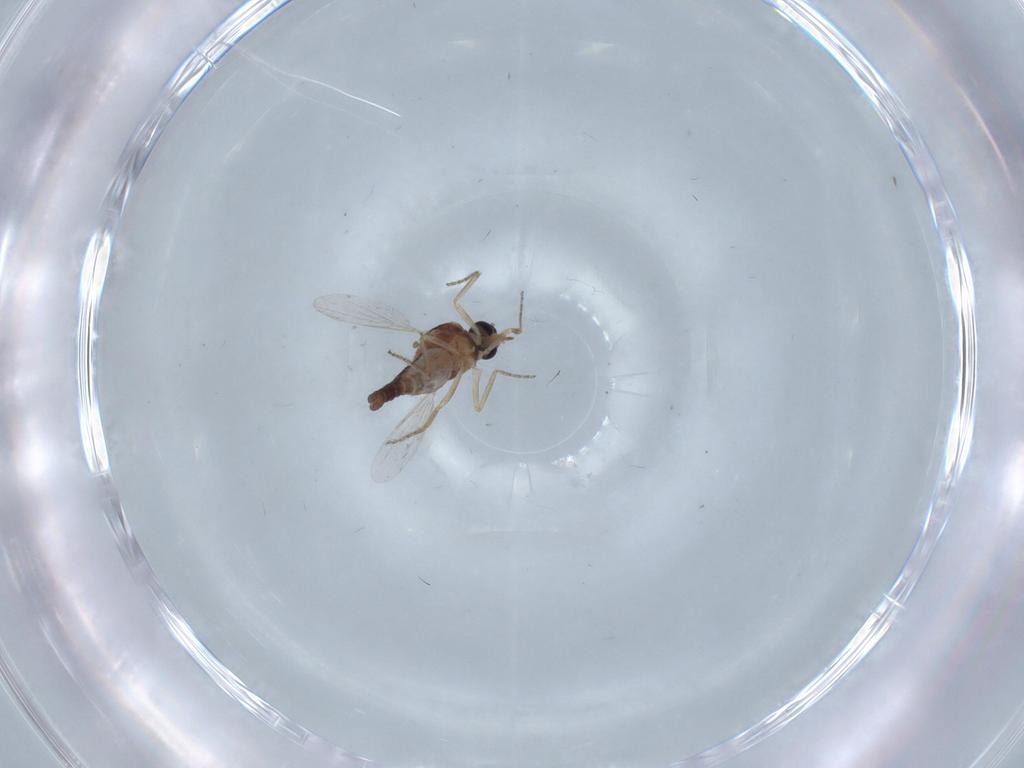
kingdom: Animalia
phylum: Arthropoda
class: Insecta
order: Diptera
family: Ceratopogonidae
